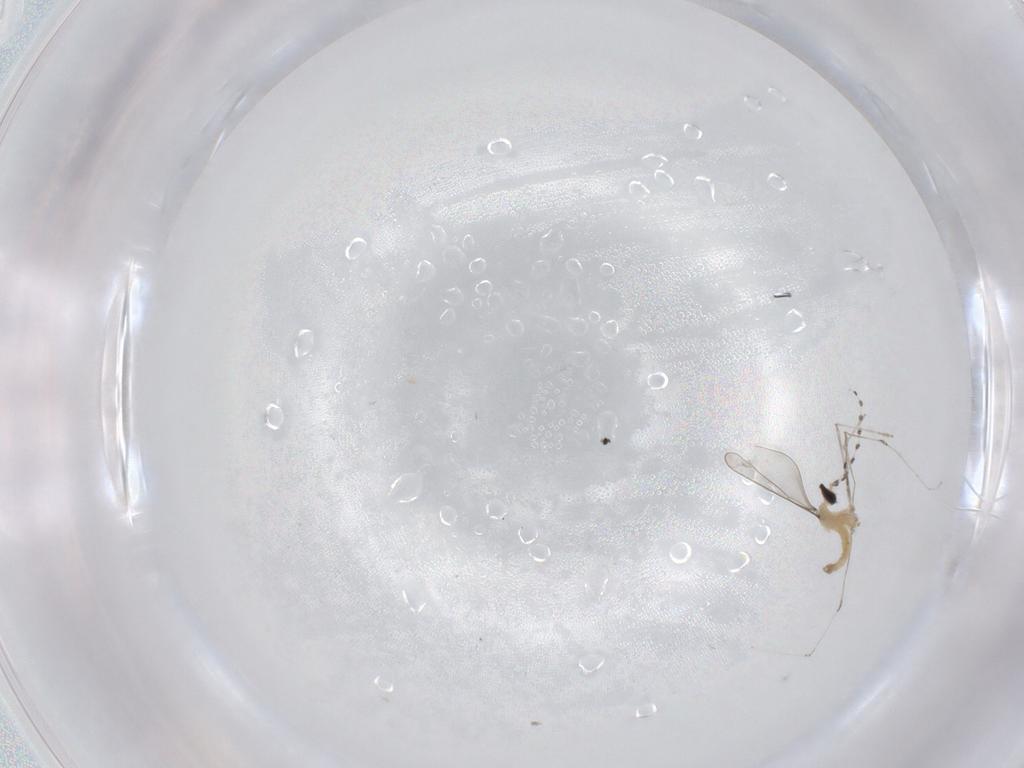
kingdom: Animalia
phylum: Arthropoda
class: Insecta
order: Diptera
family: Cecidomyiidae
